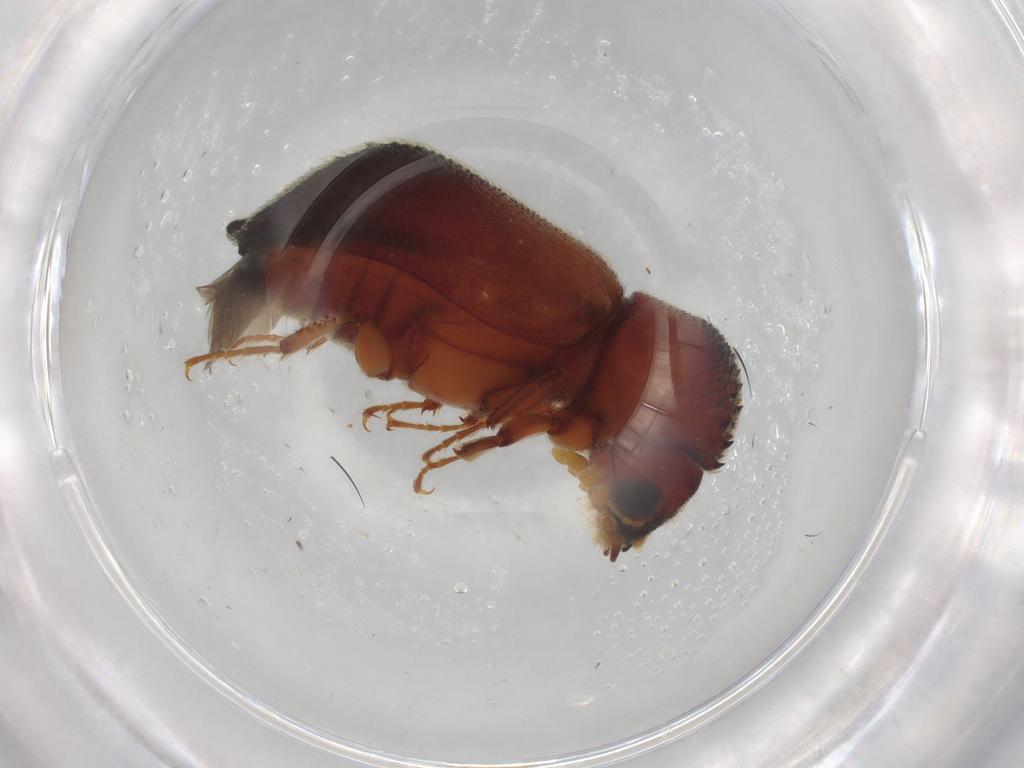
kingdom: Animalia
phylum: Arthropoda
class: Insecta
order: Coleoptera
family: Bostrichidae
